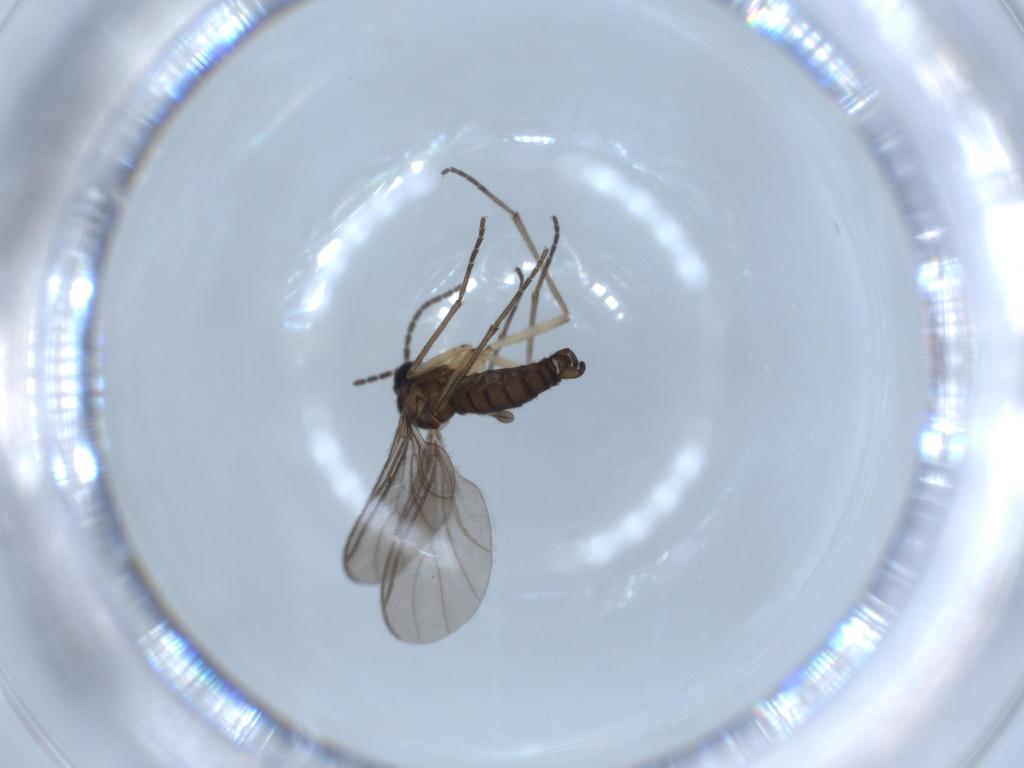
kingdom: Animalia
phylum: Arthropoda
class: Insecta
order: Diptera
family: Sciaridae
